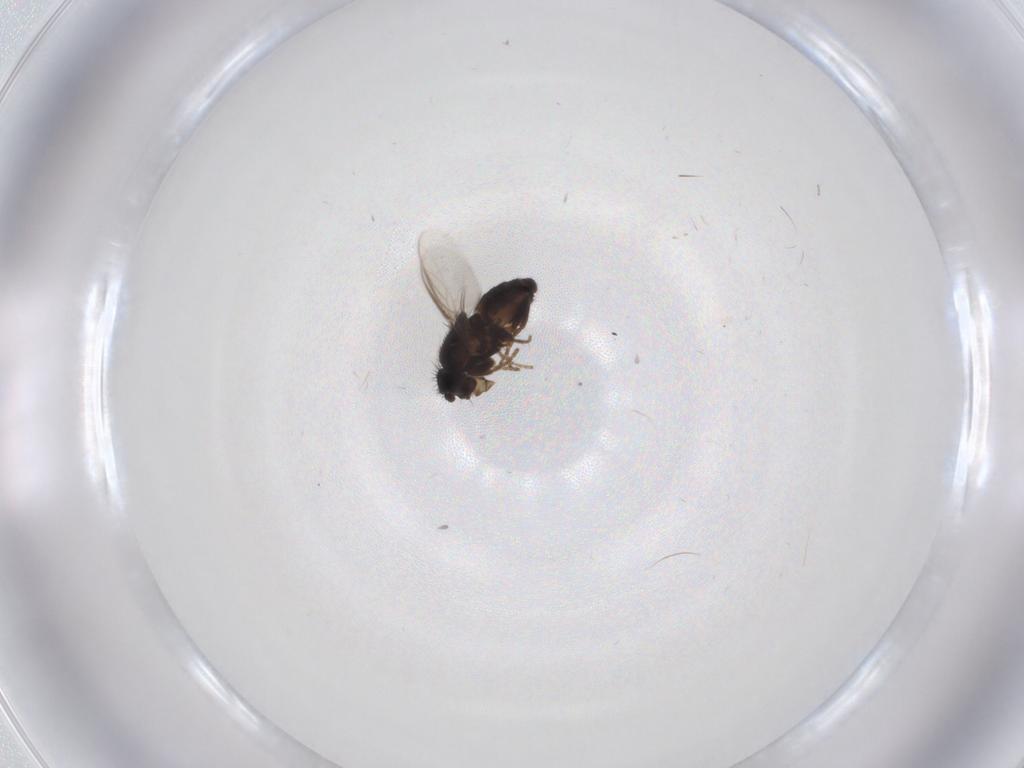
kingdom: Animalia
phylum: Arthropoda
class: Insecta
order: Diptera
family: Sphaeroceridae
